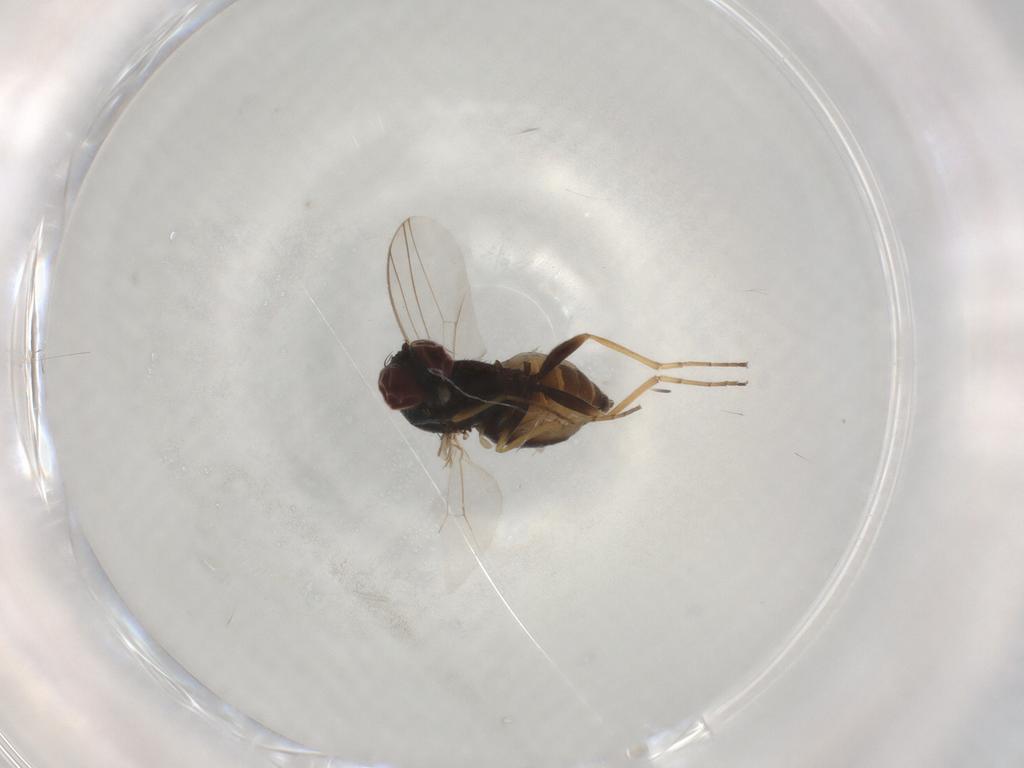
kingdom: Animalia
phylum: Arthropoda
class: Insecta
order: Diptera
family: Dolichopodidae
